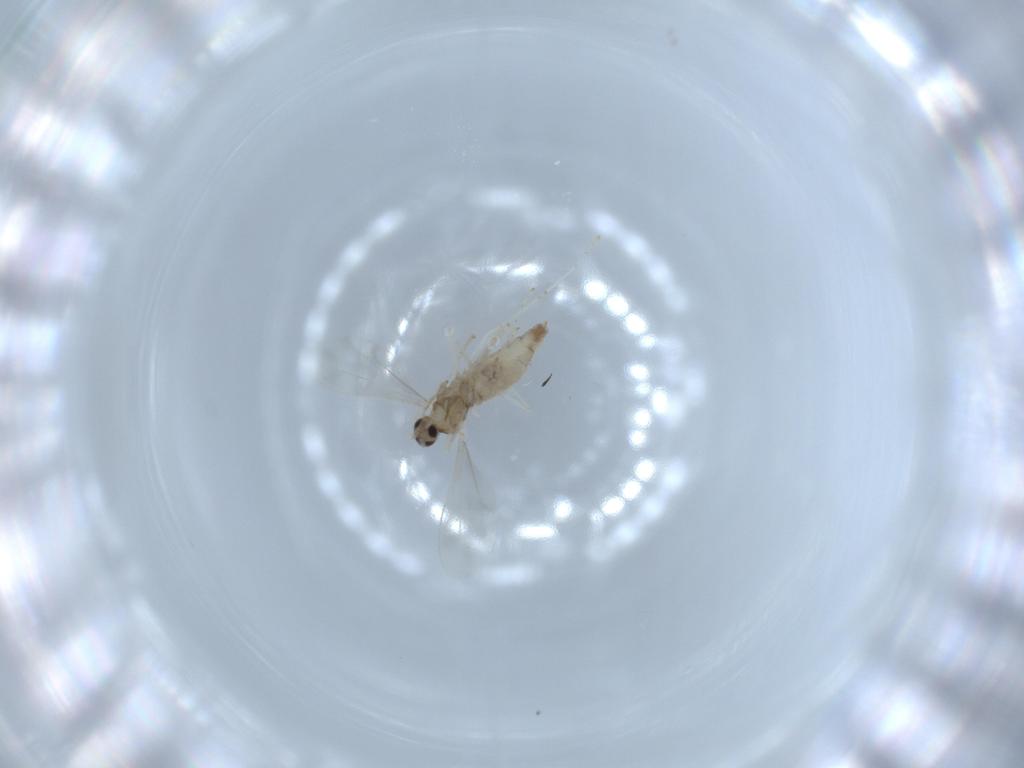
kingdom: Animalia
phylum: Arthropoda
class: Insecta
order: Diptera
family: Cecidomyiidae
